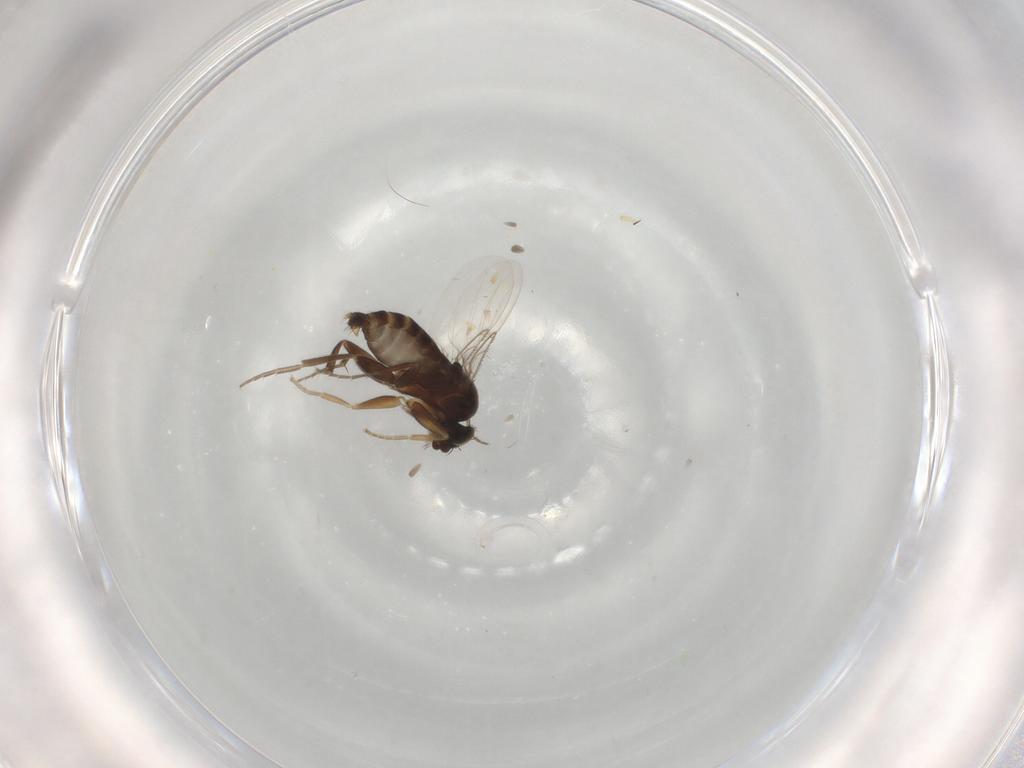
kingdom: Animalia
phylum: Arthropoda
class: Insecta
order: Diptera
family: Phoridae
